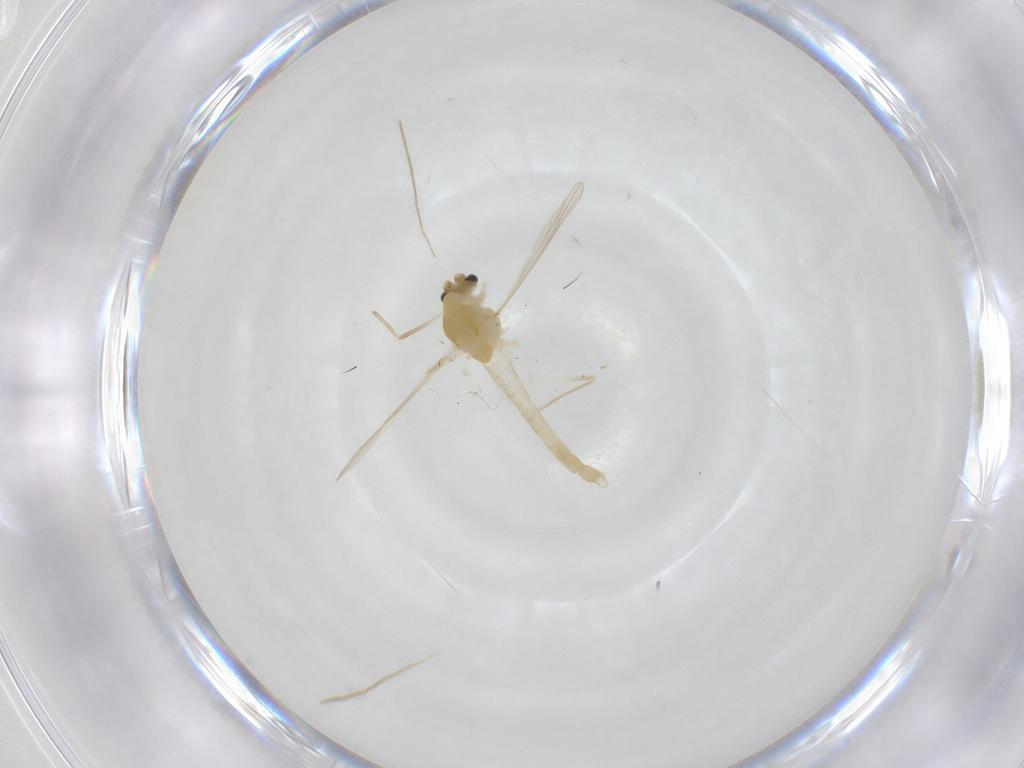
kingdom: Animalia
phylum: Arthropoda
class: Insecta
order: Diptera
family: Chironomidae
